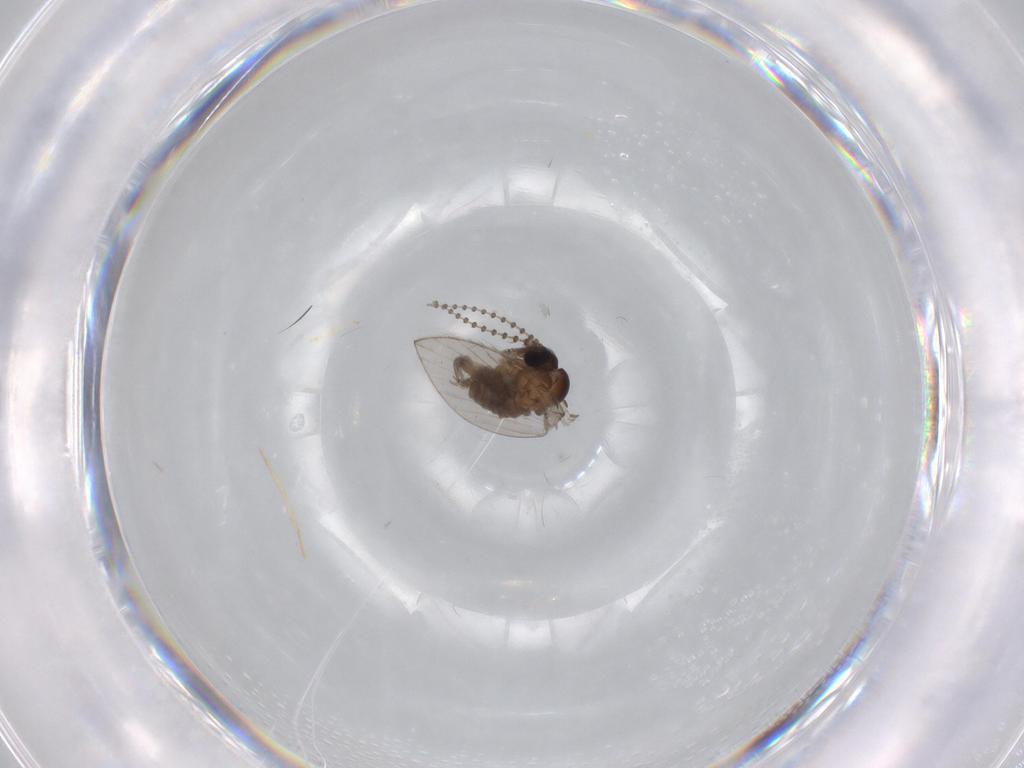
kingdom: Animalia
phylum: Arthropoda
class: Insecta
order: Diptera
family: Psychodidae
